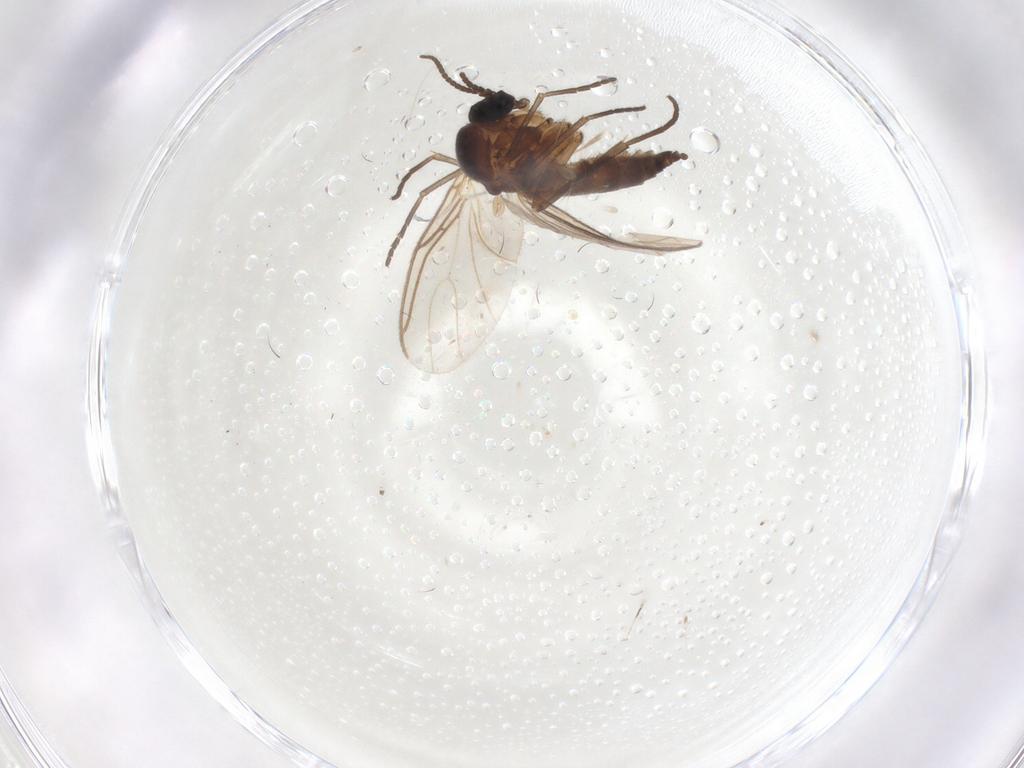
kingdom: Animalia
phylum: Arthropoda
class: Insecta
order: Diptera
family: Sciaridae
